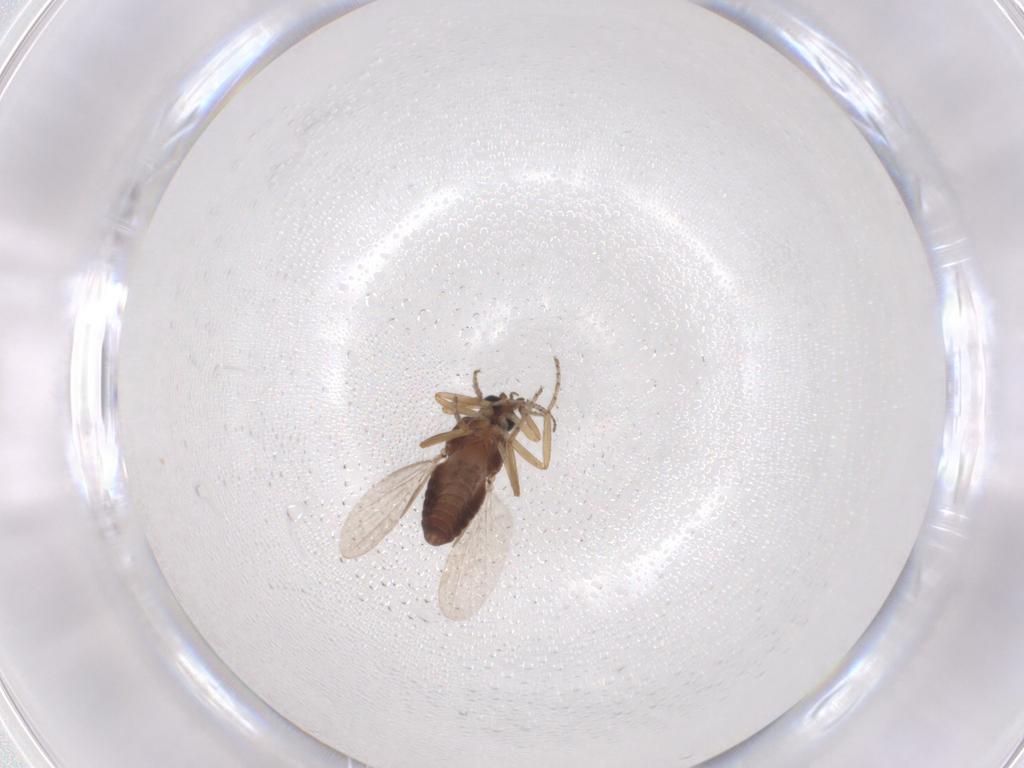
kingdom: Animalia
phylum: Arthropoda
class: Insecta
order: Diptera
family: Ceratopogonidae
